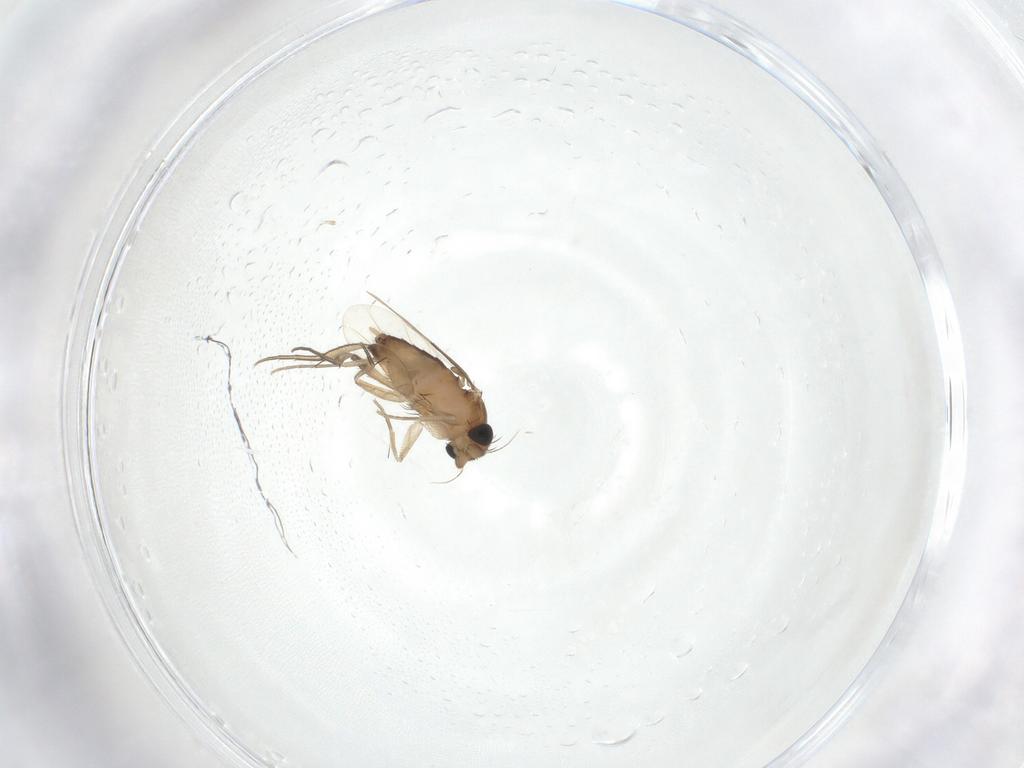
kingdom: Animalia
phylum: Arthropoda
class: Insecta
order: Diptera
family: Phoridae
